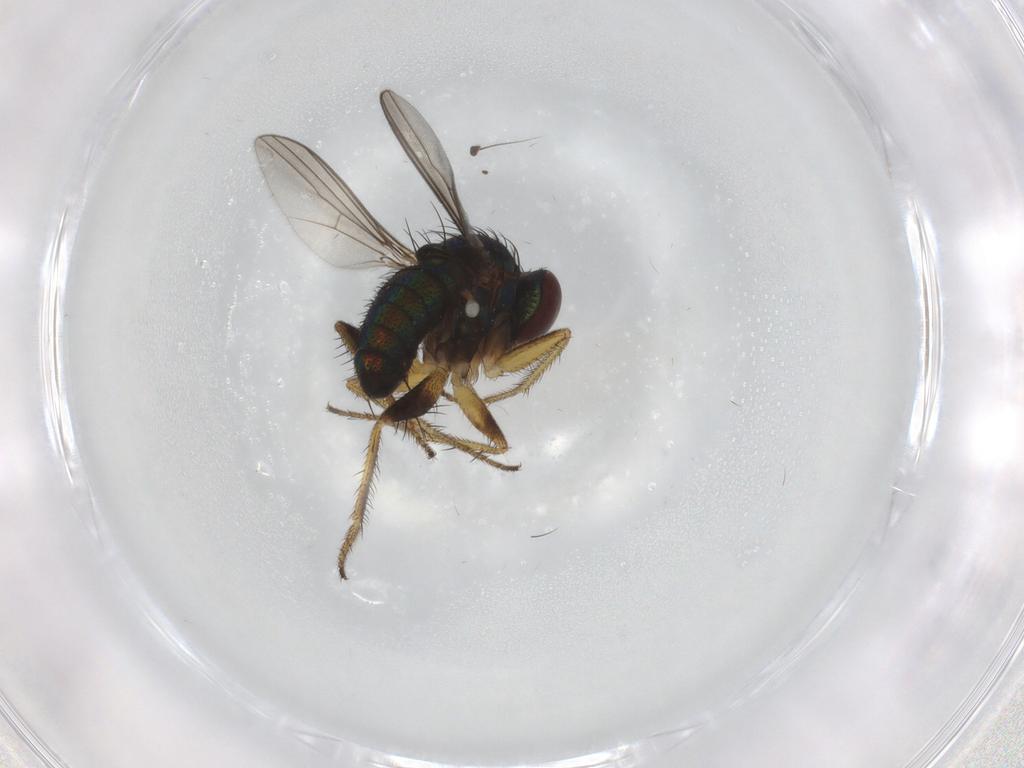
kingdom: Animalia
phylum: Arthropoda
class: Insecta
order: Diptera
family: Dolichopodidae
